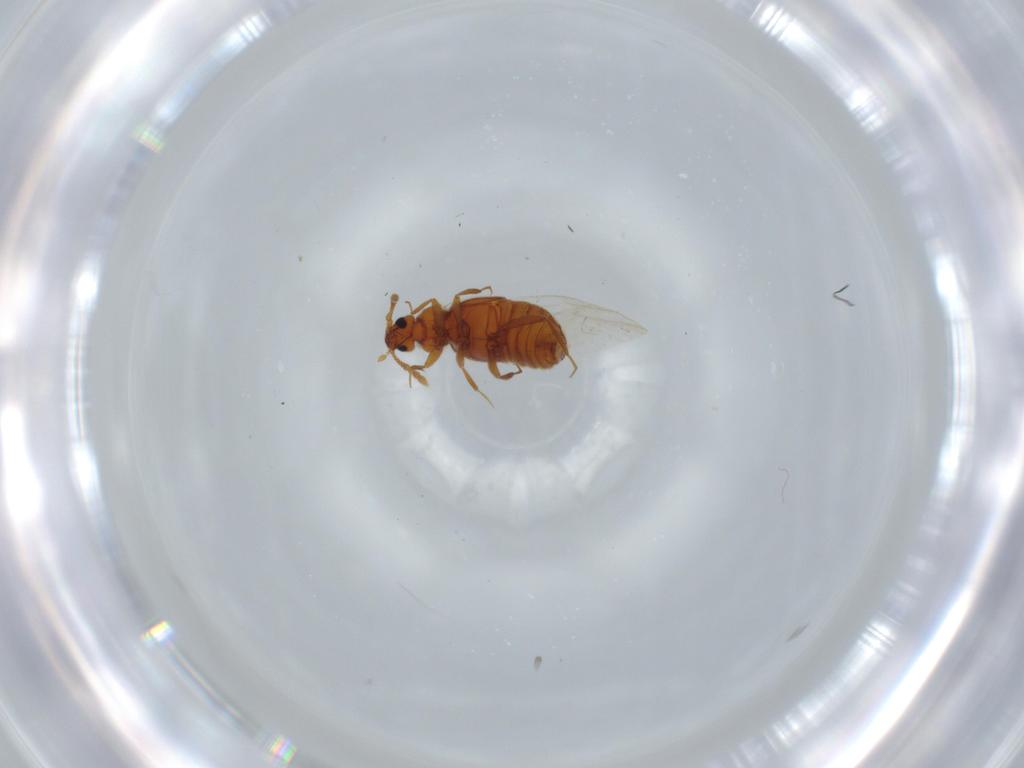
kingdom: Animalia
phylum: Arthropoda
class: Insecta
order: Coleoptera
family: Staphylinidae
